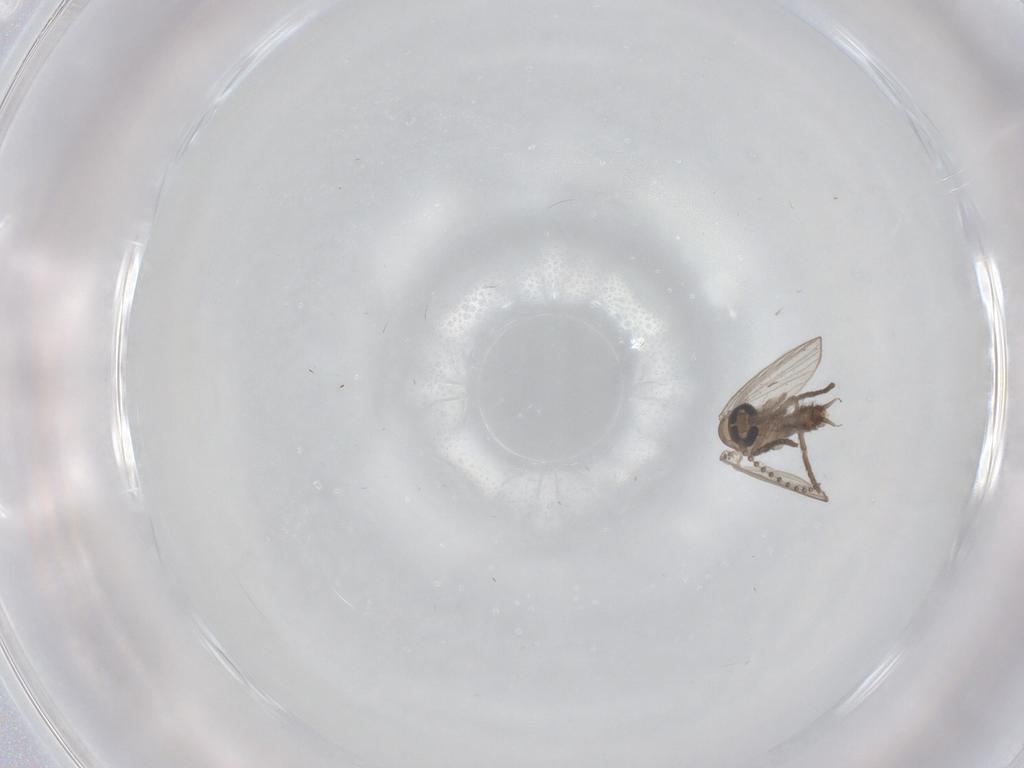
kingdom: Animalia
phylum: Arthropoda
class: Insecta
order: Diptera
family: Psychodidae
